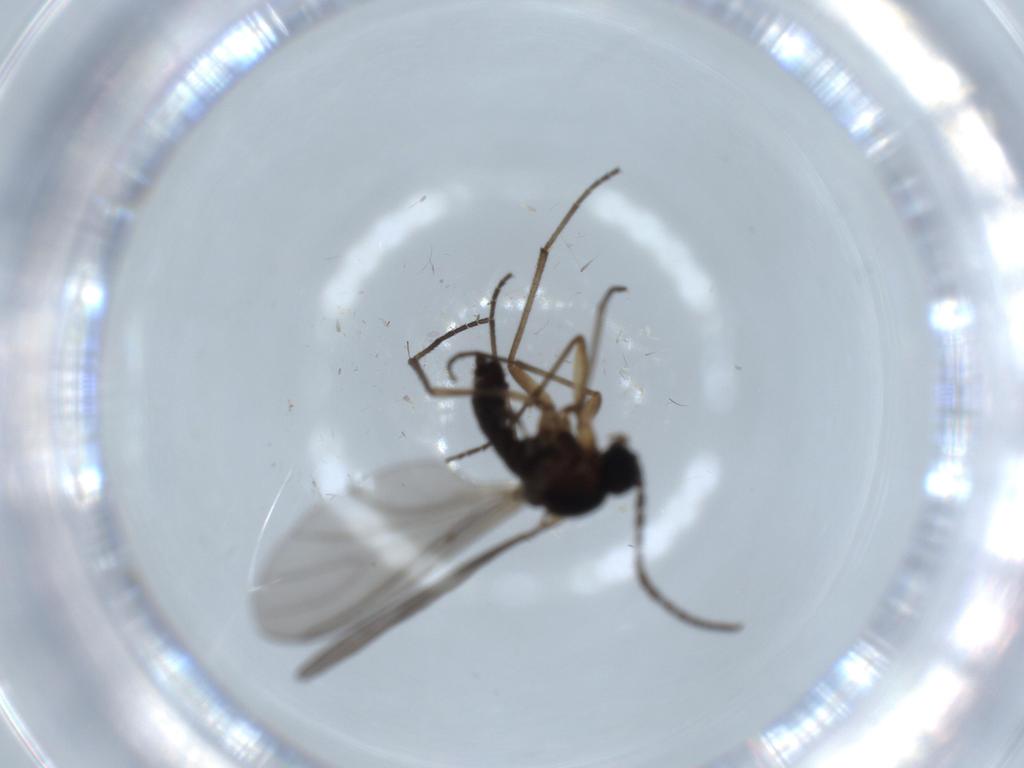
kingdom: Animalia
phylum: Arthropoda
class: Insecta
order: Diptera
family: Sciaridae
